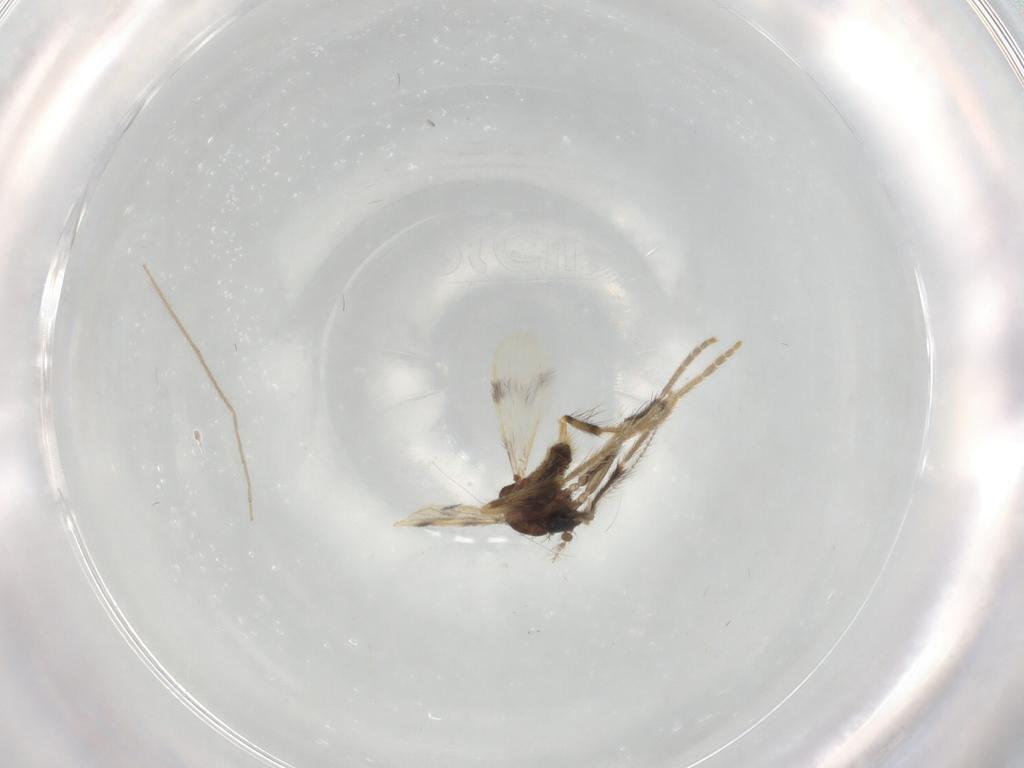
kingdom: Animalia
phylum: Arthropoda
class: Insecta
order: Diptera
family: Corethrellidae
